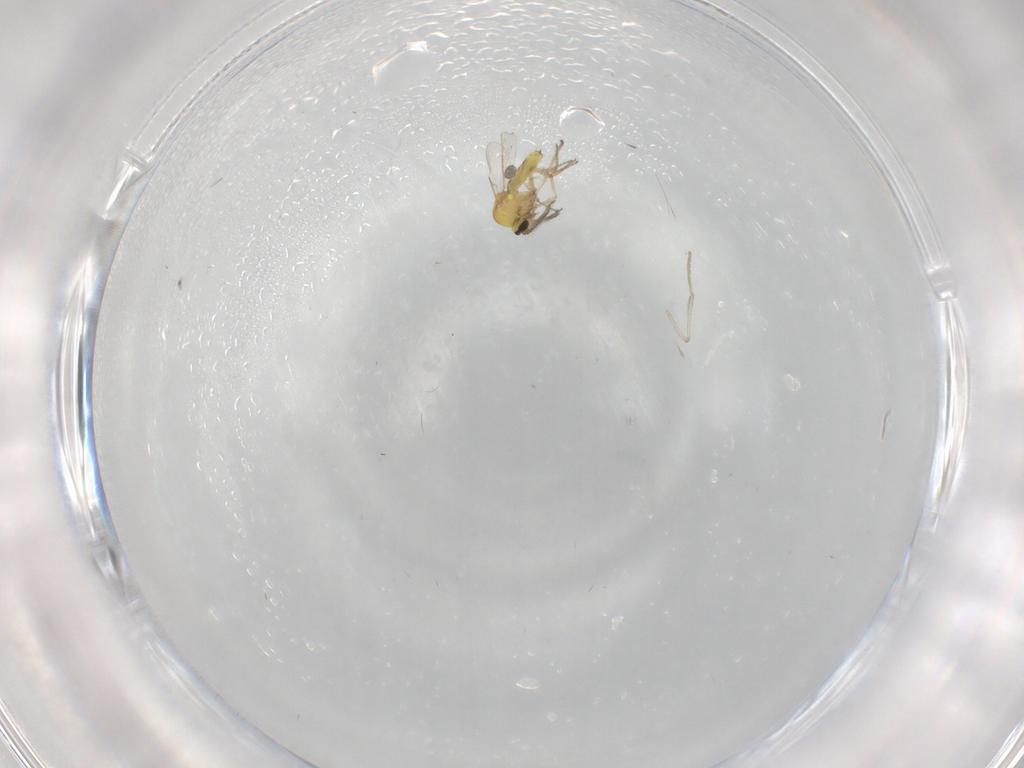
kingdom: Animalia
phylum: Arthropoda
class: Insecta
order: Diptera
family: Ceratopogonidae
